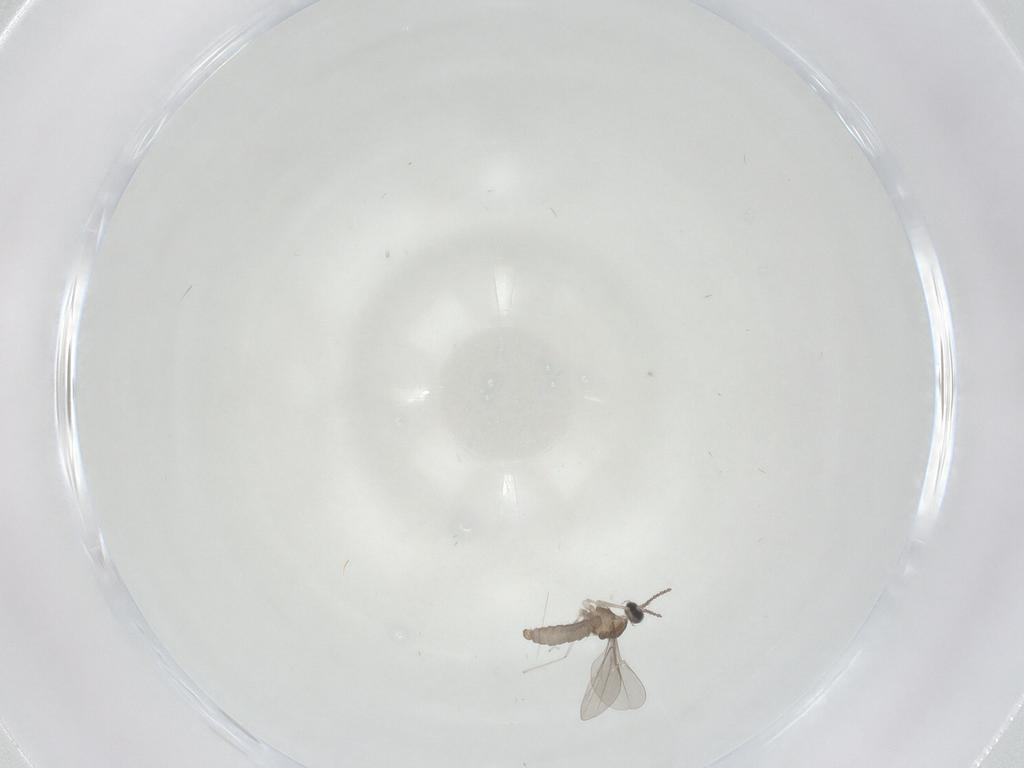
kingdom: Animalia
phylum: Arthropoda
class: Insecta
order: Diptera
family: Cecidomyiidae
